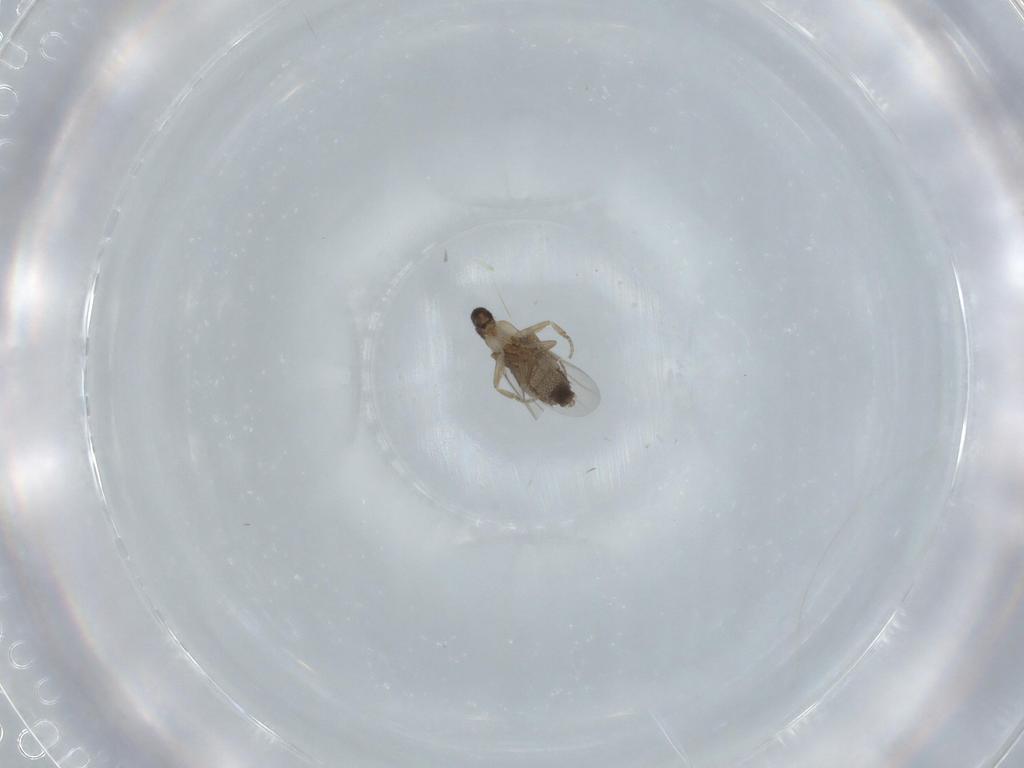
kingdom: Animalia
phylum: Arthropoda
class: Insecta
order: Diptera
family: Phoridae
